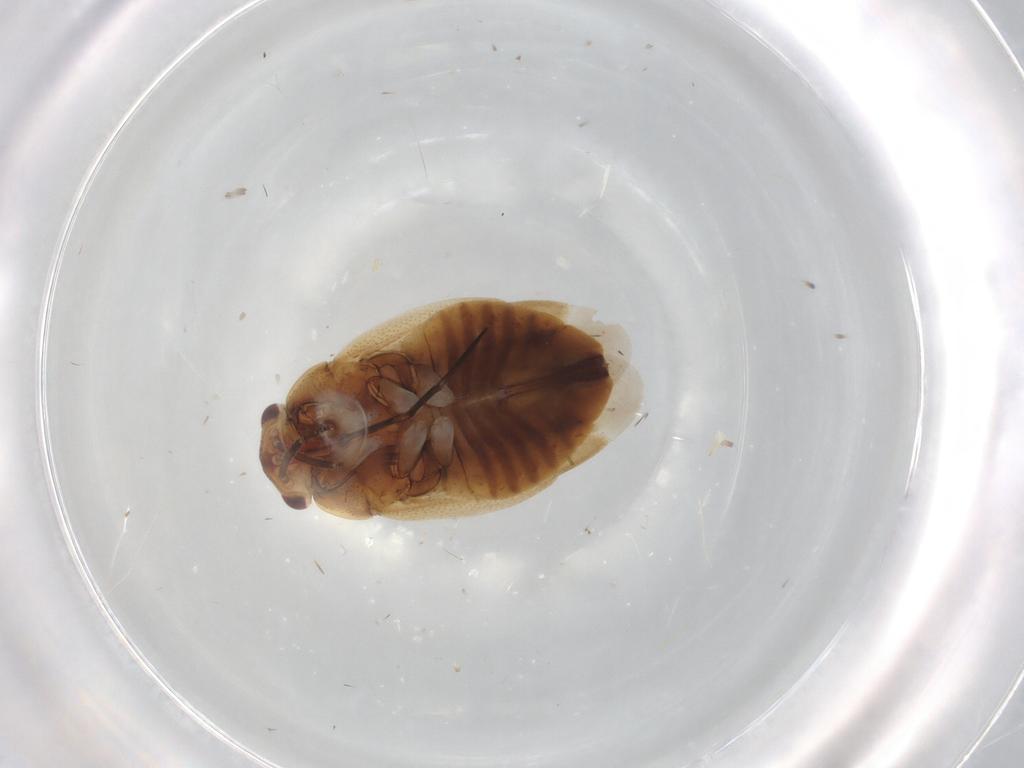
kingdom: Animalia
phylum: Arthropoda
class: Insecta
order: Hemiptera
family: Miridae
